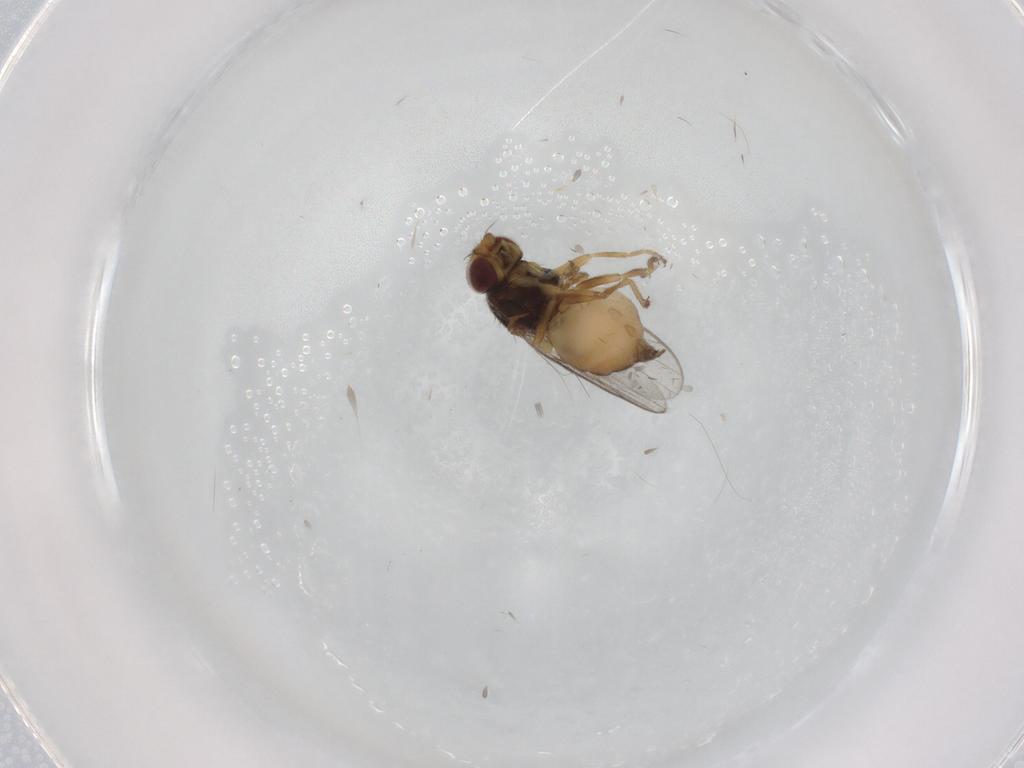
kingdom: Animalia
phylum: Arthropoda
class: Insecta
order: Diptera
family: Chloropidae
